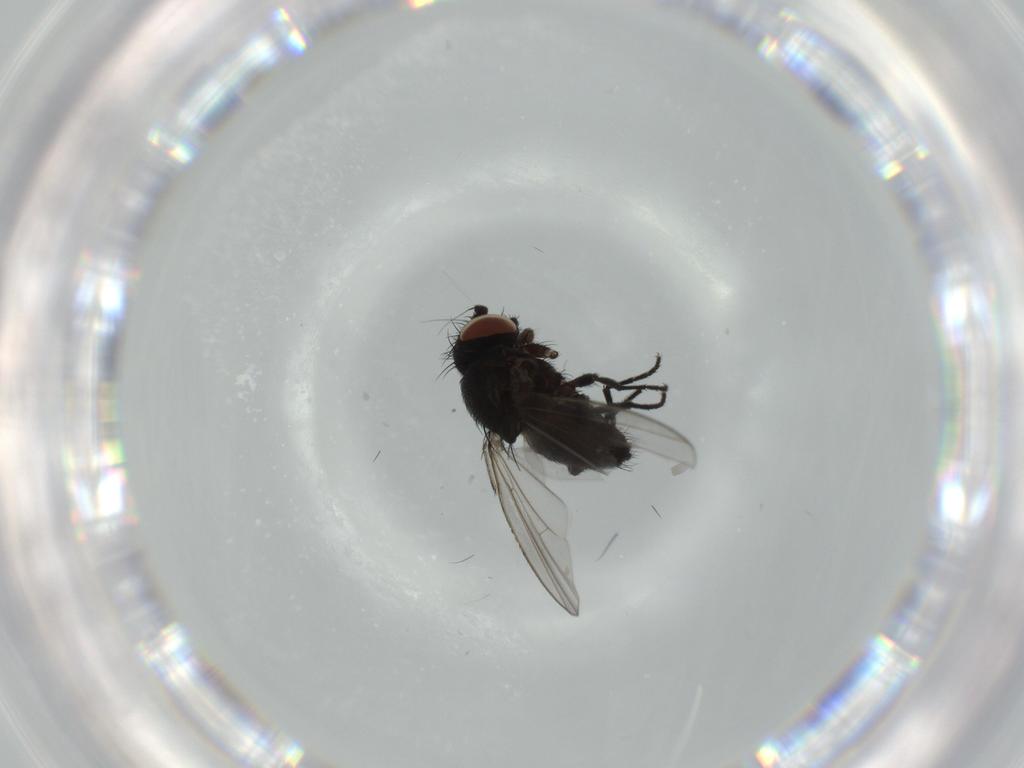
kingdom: Animalia
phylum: Arthropoda
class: Insecta
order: Diptera
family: Milichiidae
